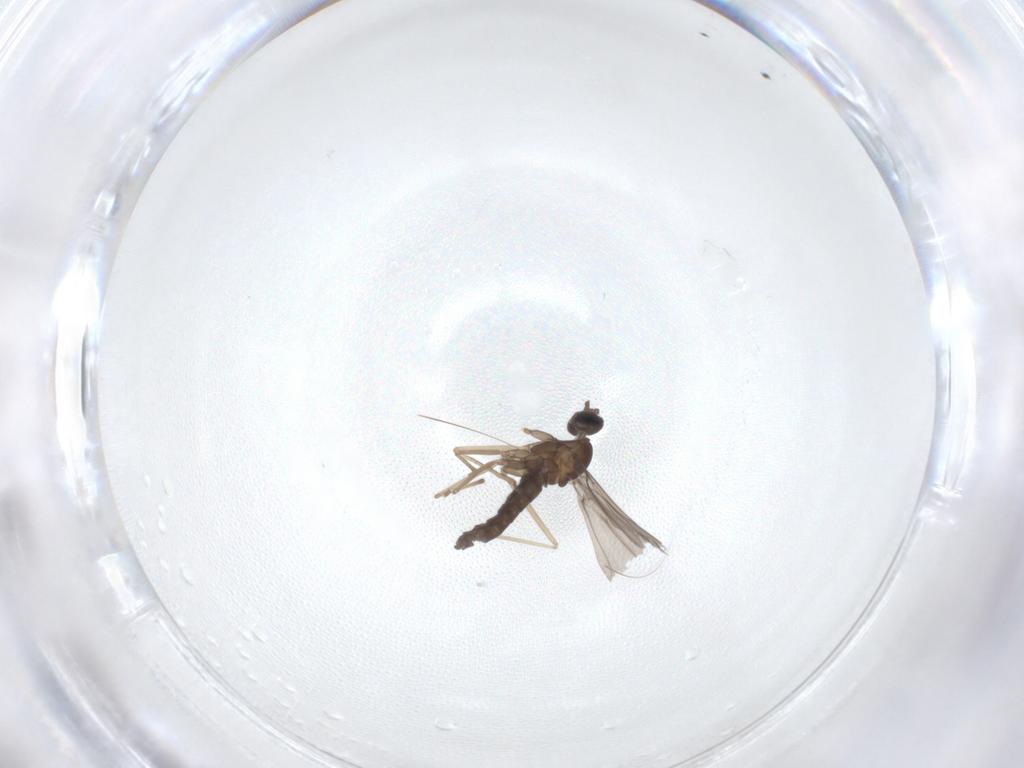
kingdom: Animalia
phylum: Arthropoda
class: Insecta
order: Diptera
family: Cecidomyiidae
